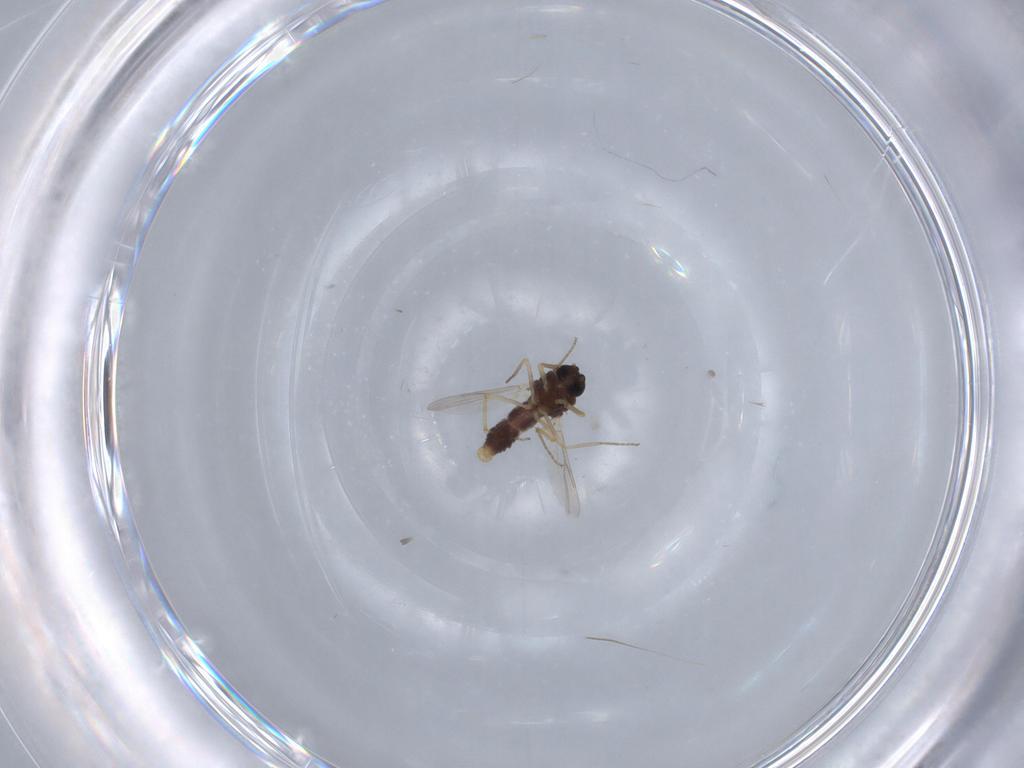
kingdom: Animalia
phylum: Arthropoda
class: Insecta
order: Diptera
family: Ceratopogonidae
